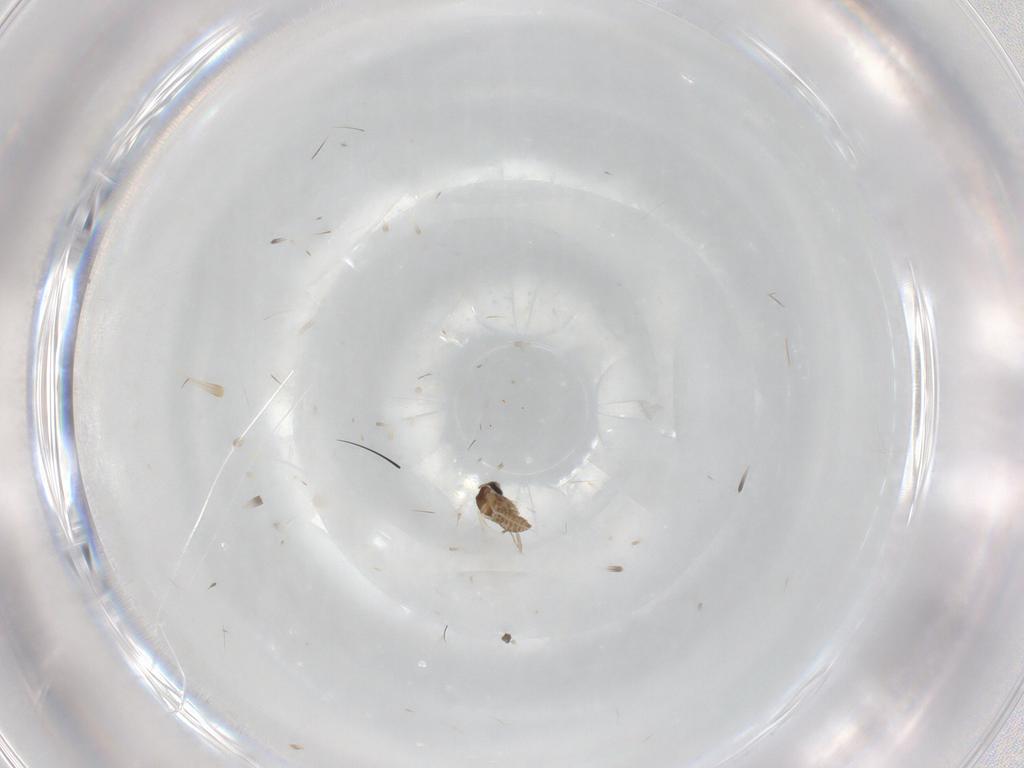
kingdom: Animalia
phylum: Arthropoda
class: Insecta
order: Diptera
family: Cecidomyiidae
